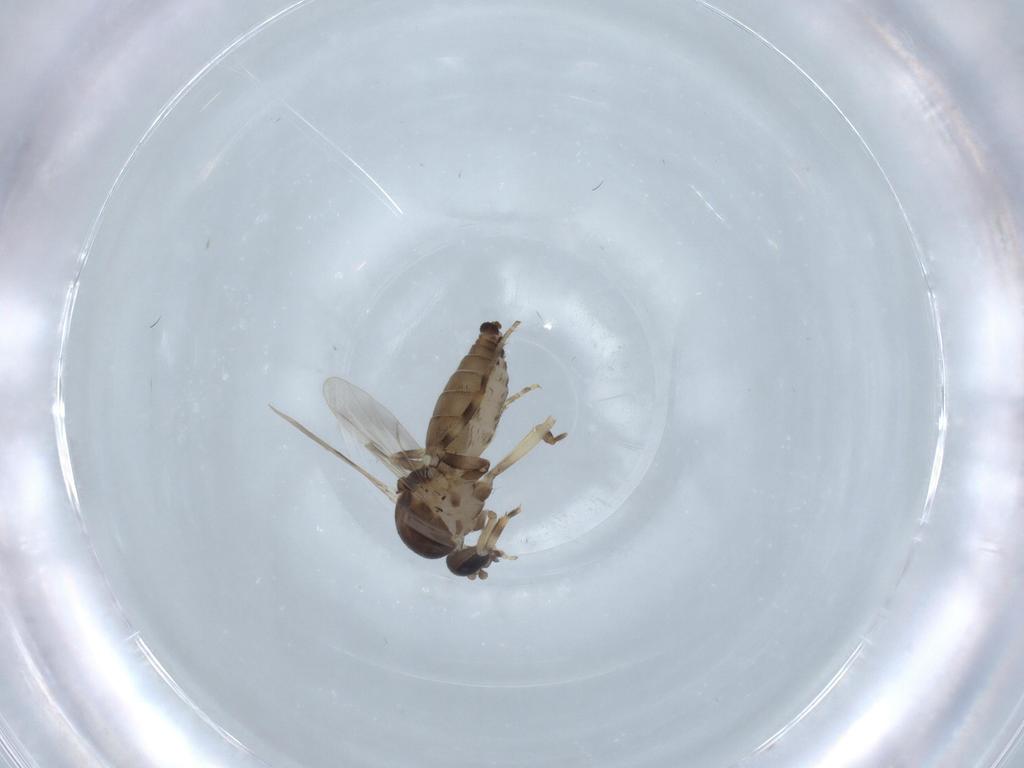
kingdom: Animalia
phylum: Arthropoda
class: Insecta
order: Diptera
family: Ceratopogonidae
